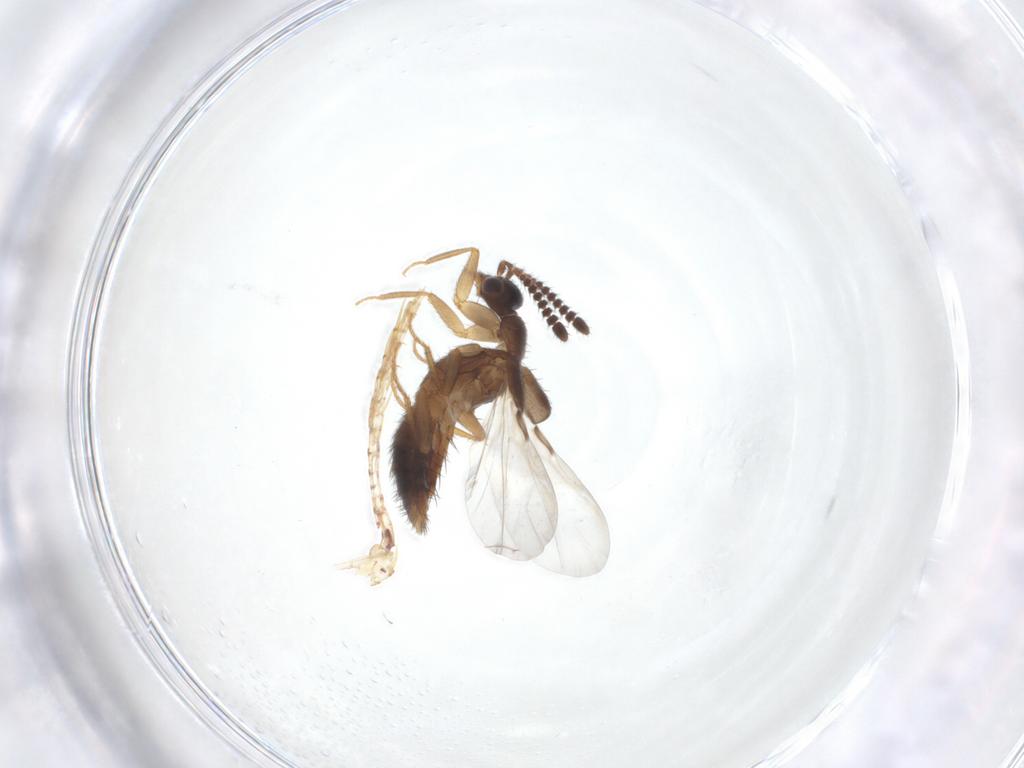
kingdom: Animalia
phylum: Arthropoda
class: Insecta
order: Coleoptera
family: Staphylinidae
